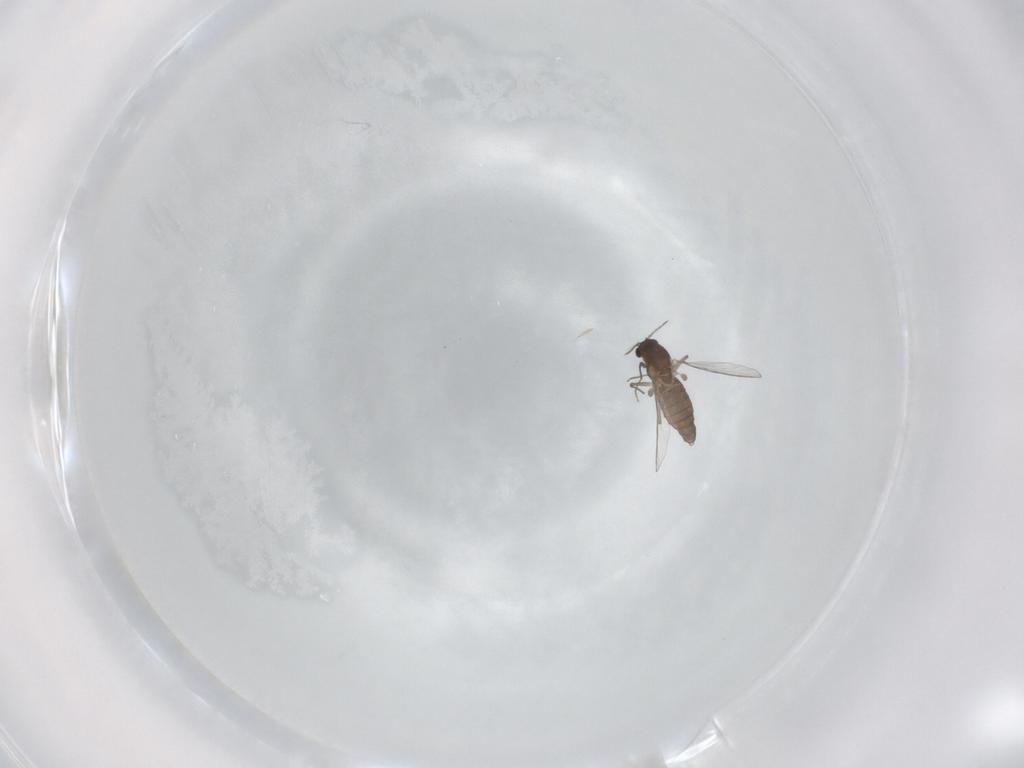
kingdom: Animalia
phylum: Arthropoda
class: Insecta
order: Diptera
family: Chironomidae
